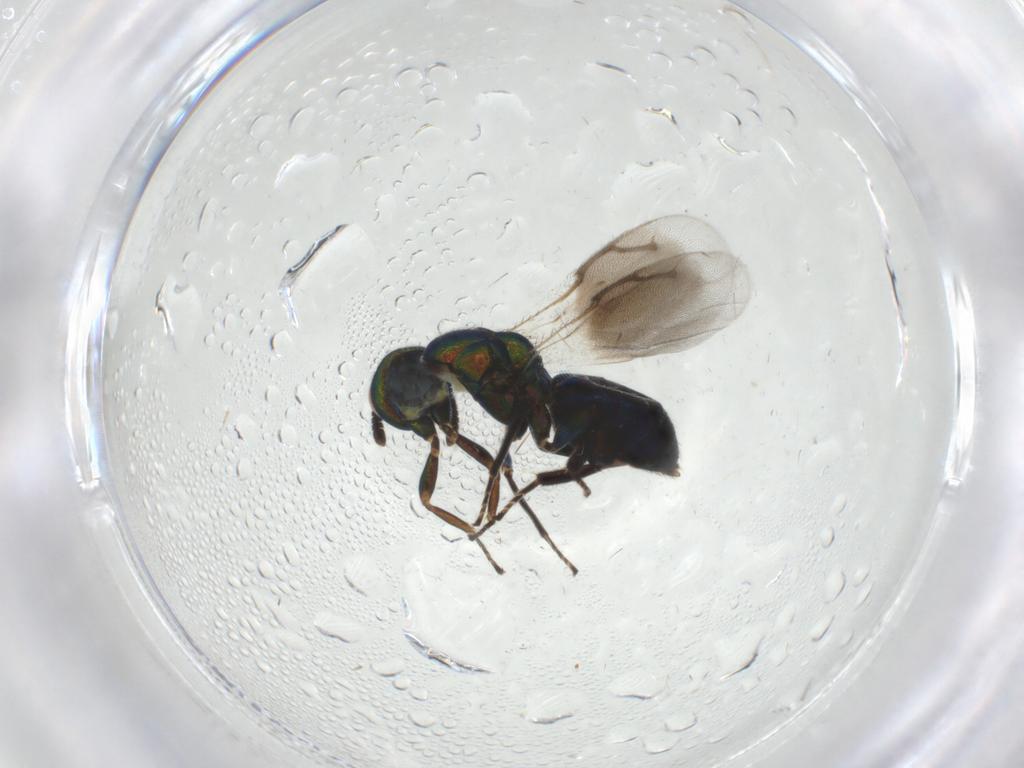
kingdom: Animalia
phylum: Arthropoda
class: Insecta
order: Hymenoptera
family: Pteromalidae
